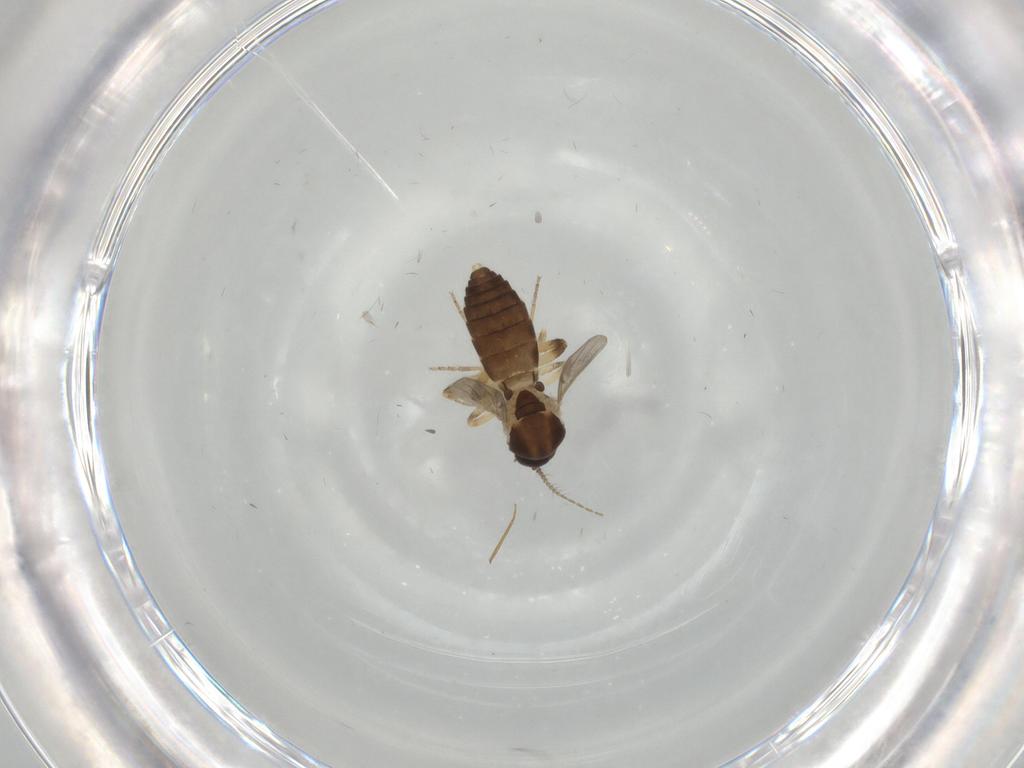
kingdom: Animalia
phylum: Arthropoda
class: Insecta
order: Diptera
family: Ceratopogonidae
